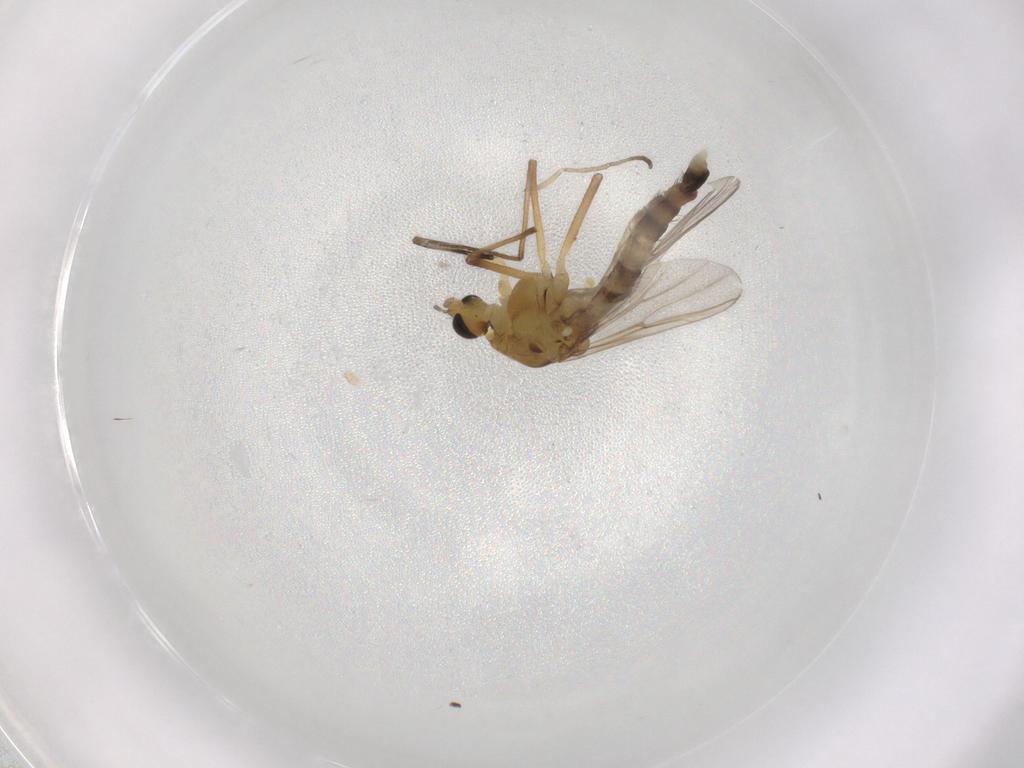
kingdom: Animalia
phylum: Arthropoda
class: Insecta
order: Diptera
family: Chironomidae
